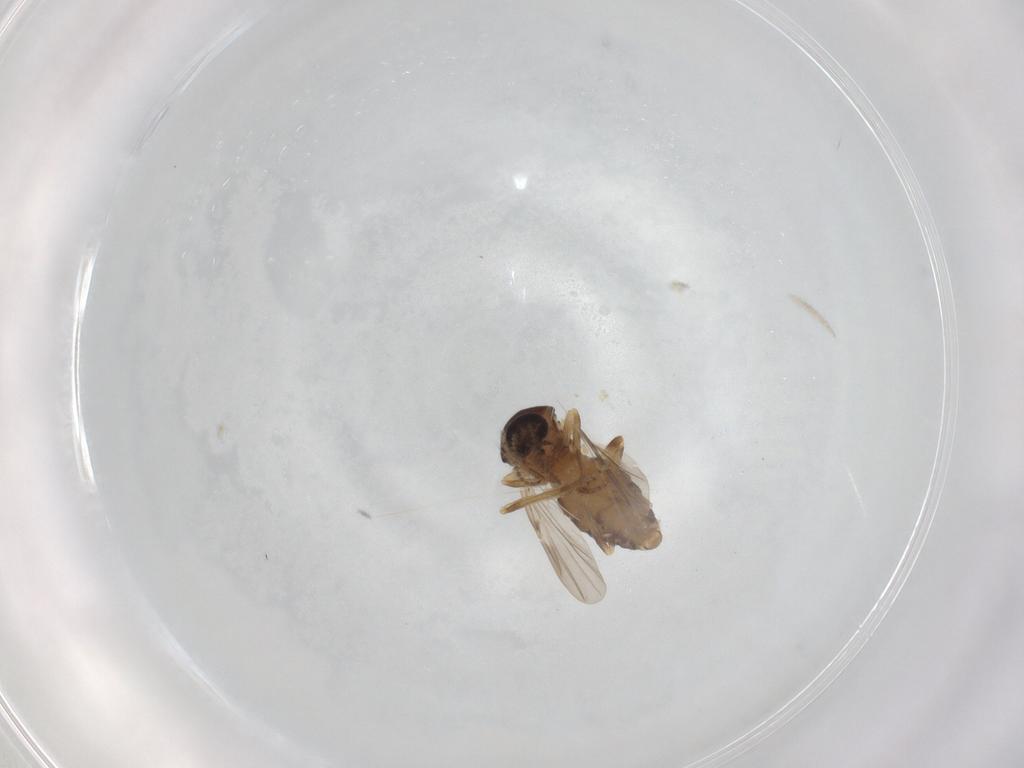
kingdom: Animalia
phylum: Arthropoda
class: Insecta
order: Diptera
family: Ceratopogonidae
